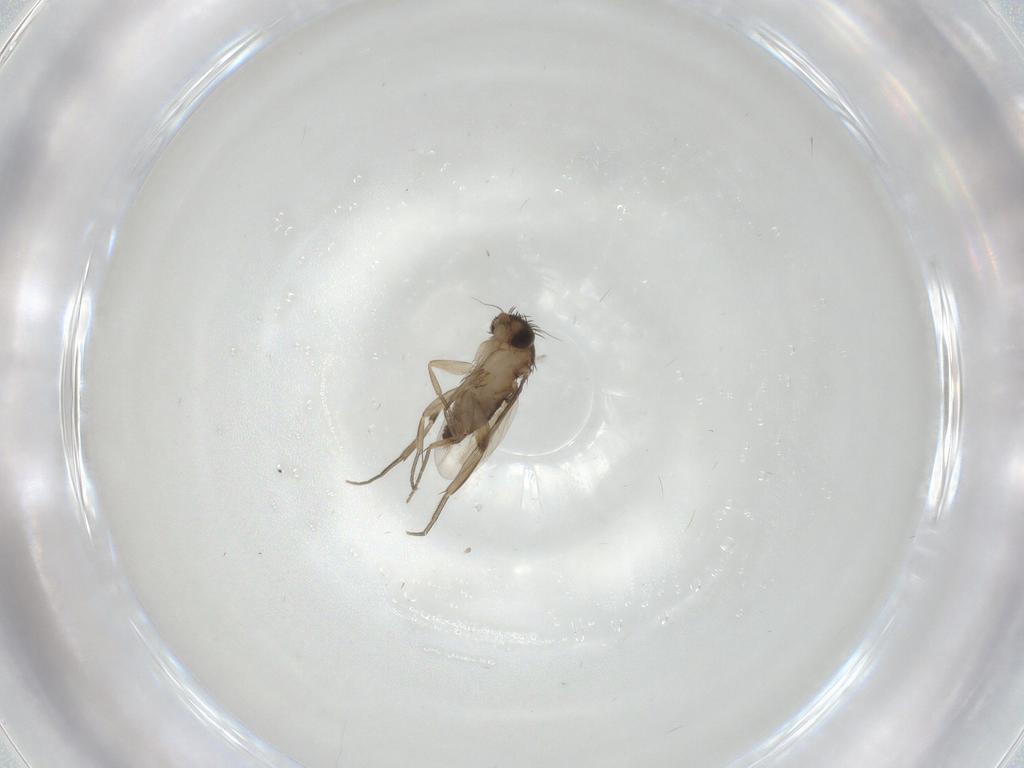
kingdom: Animalia
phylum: Arthropoda
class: Insecta
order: Diptera
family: Phoridae
